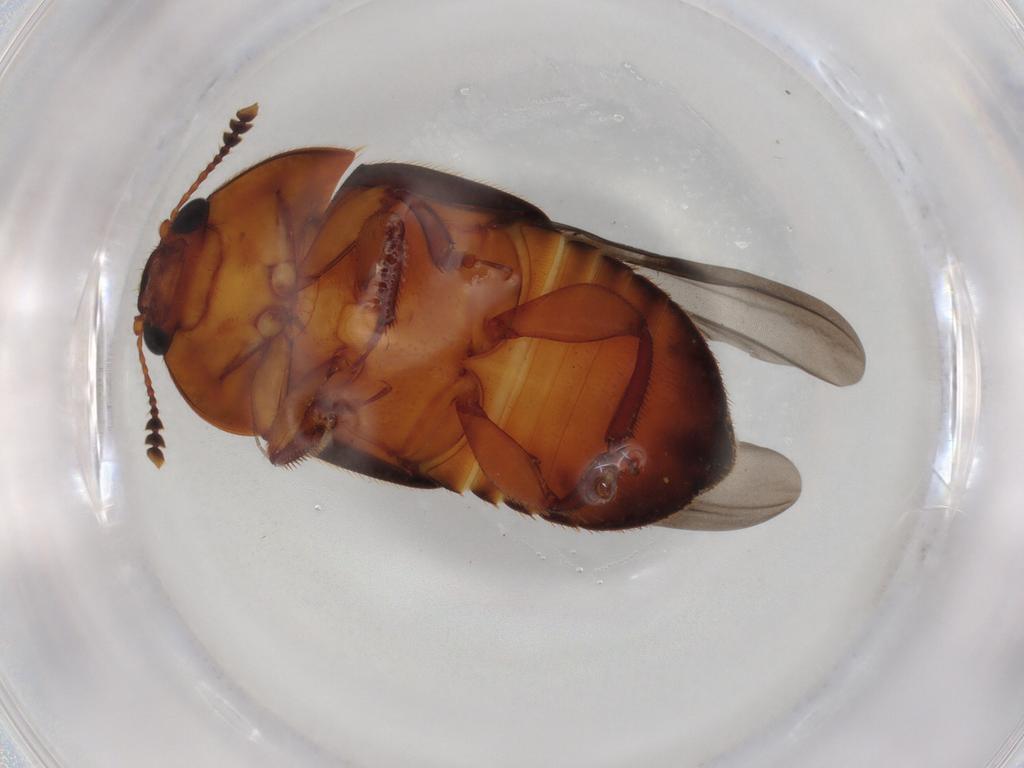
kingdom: Animalia
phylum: Arthropoda
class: Insecta
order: Coleoptera
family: Nitidulidae
